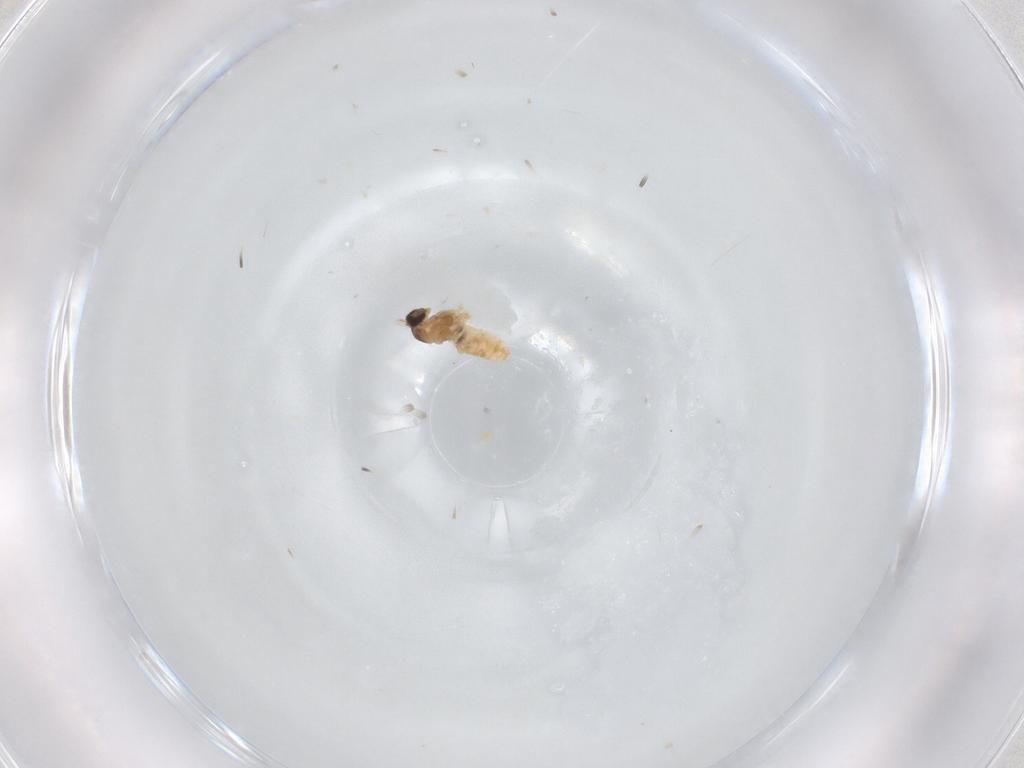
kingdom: Animalia
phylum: Arthropoda
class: Insecta
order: Diptera
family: Cecidomyiidae
